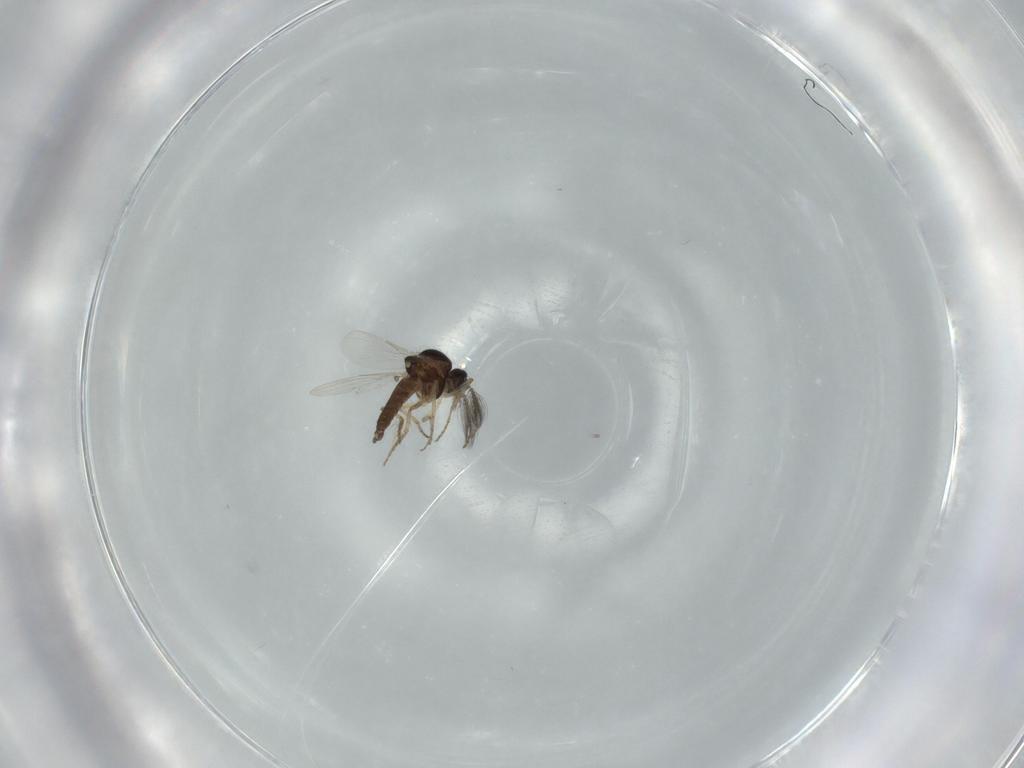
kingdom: Animalia
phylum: Arthropoda
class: Insecta
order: Diptera
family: Ceratopogonidae
